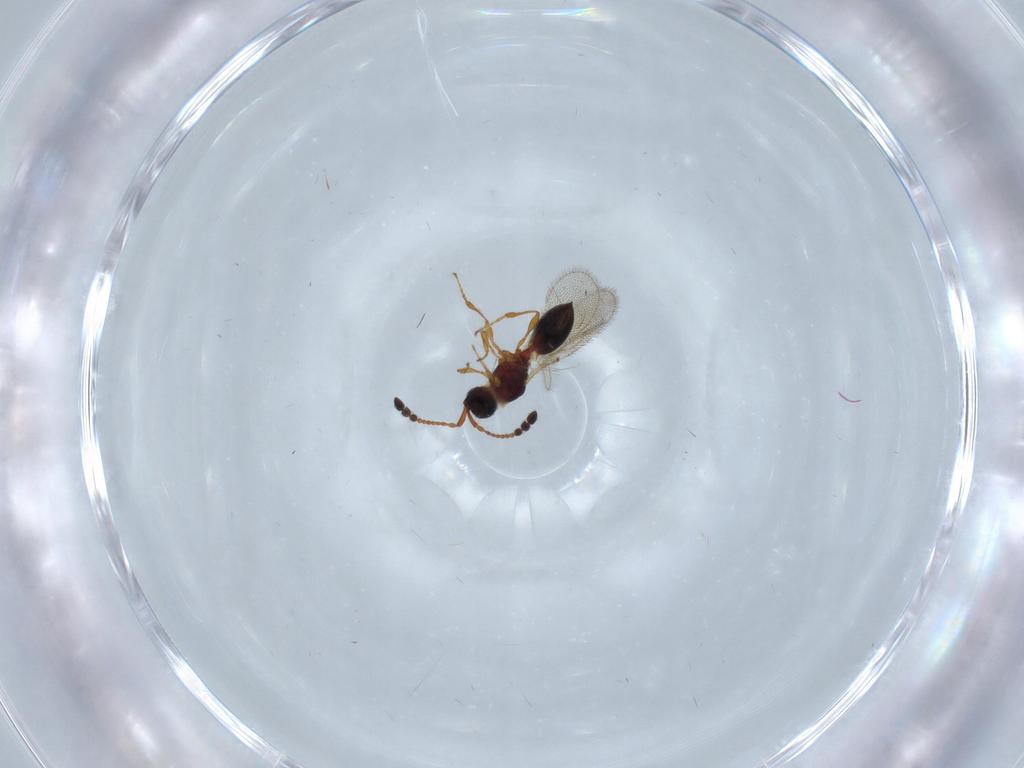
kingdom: Animalia
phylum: Arthropoda
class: Insecta
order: Hymenoptera
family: Diapriidae
